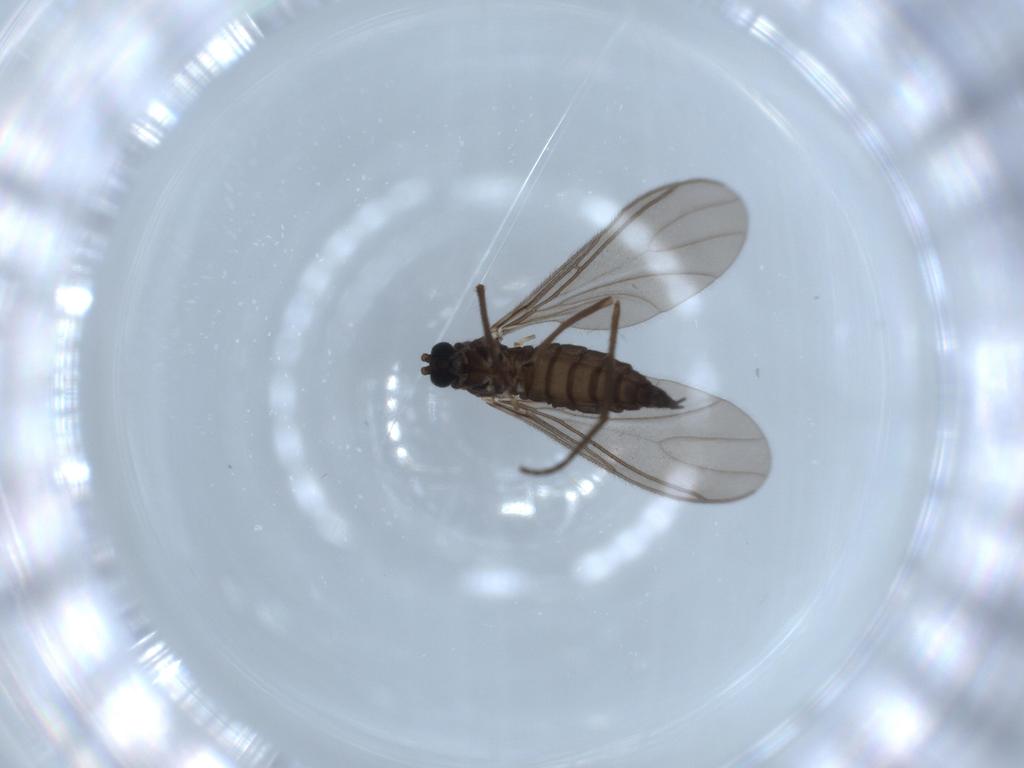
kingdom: Animalia
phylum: Arthropoda
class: Insecta
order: Diptera
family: Sciaridae
